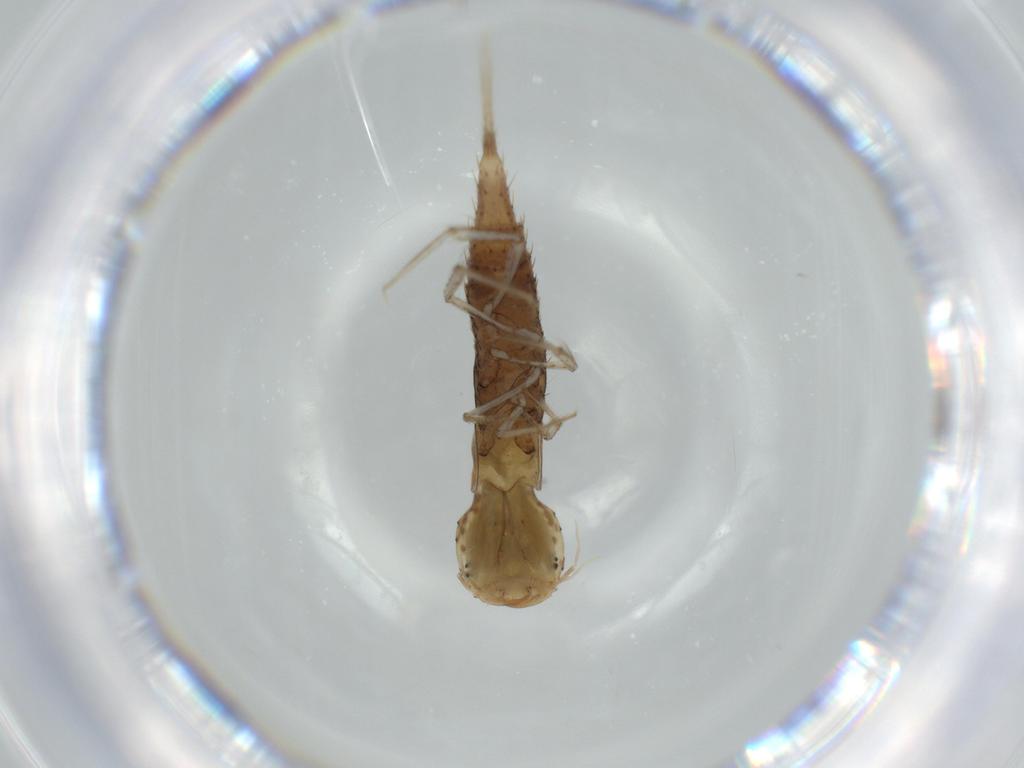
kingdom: Animalia
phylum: Arthropoda
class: Insecta
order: Coleoptera
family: Dytiscidae
